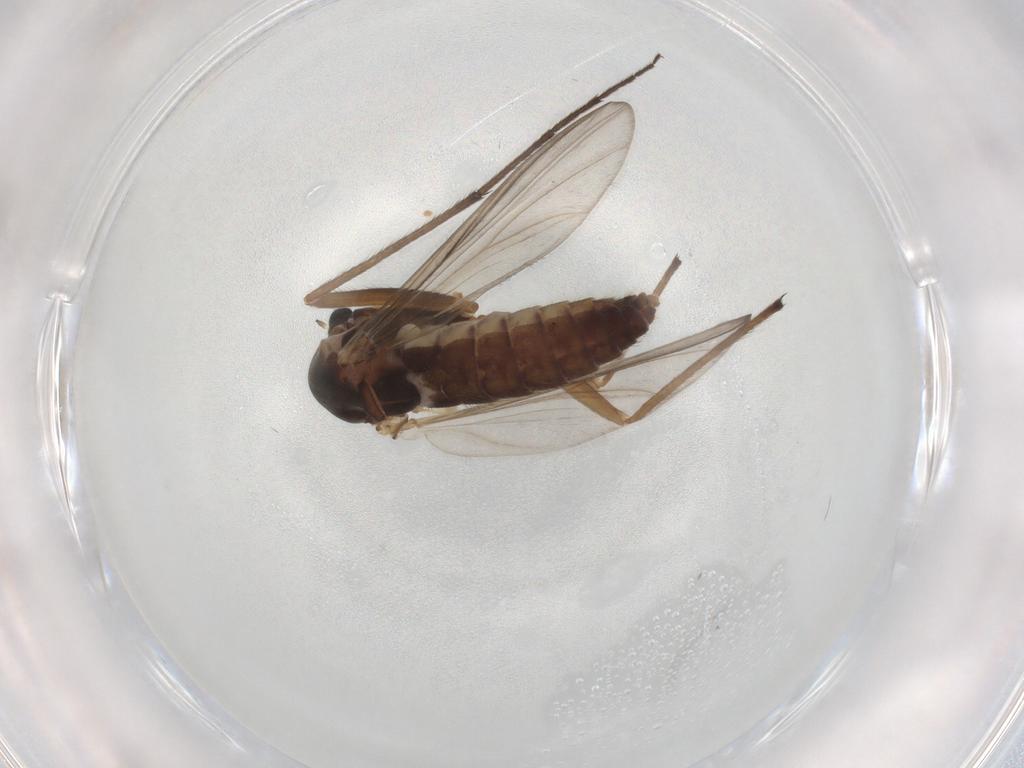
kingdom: Animalia
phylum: Arthropoda
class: Insecta
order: Diptera
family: Chironomidae
